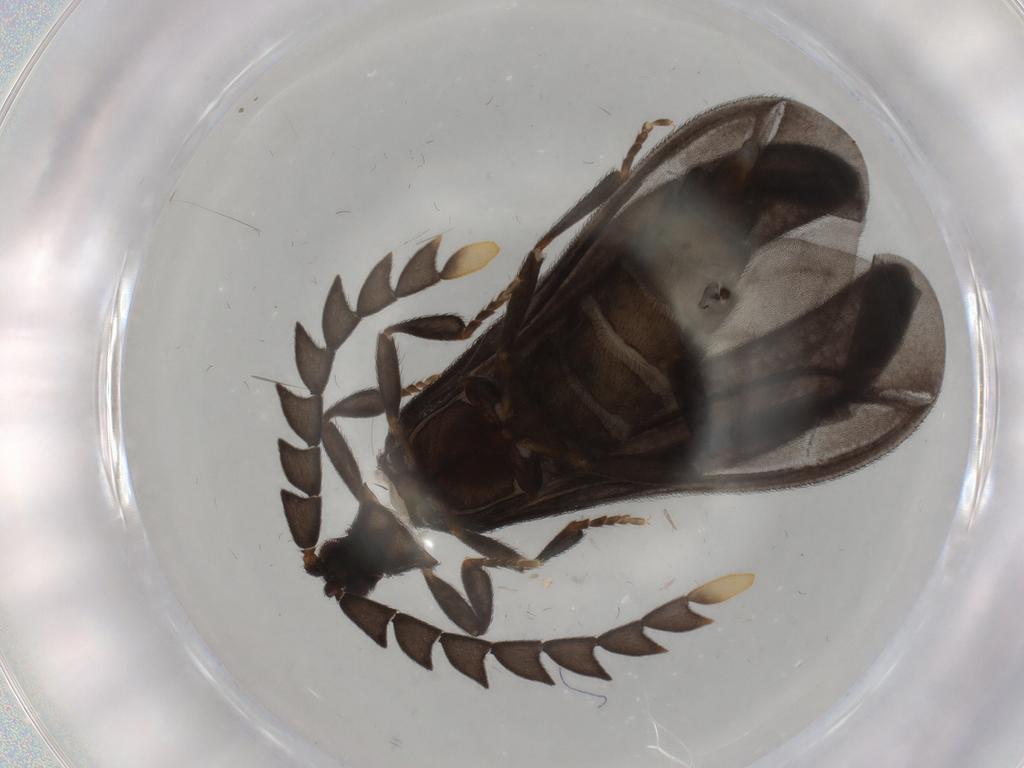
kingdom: Animalia
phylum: Arthropoda
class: Insecta
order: Coleoptera
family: Lycidae
